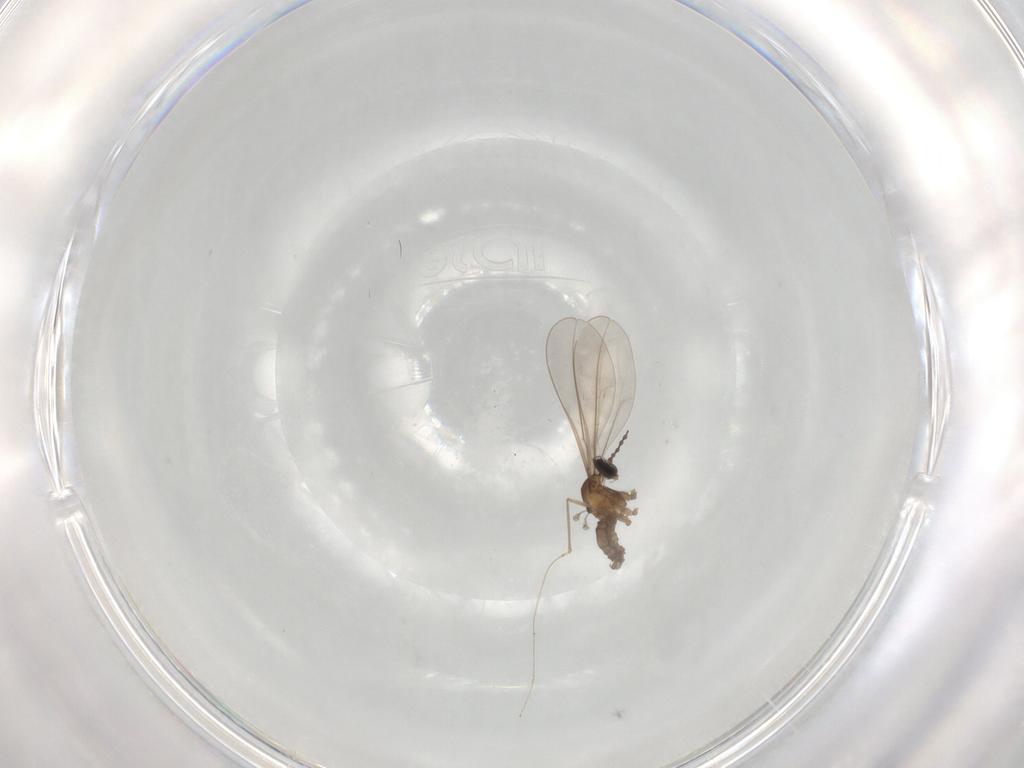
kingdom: Animalia
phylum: Arthropoda
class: Insecta
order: Diptera
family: Cecidomyiidae
